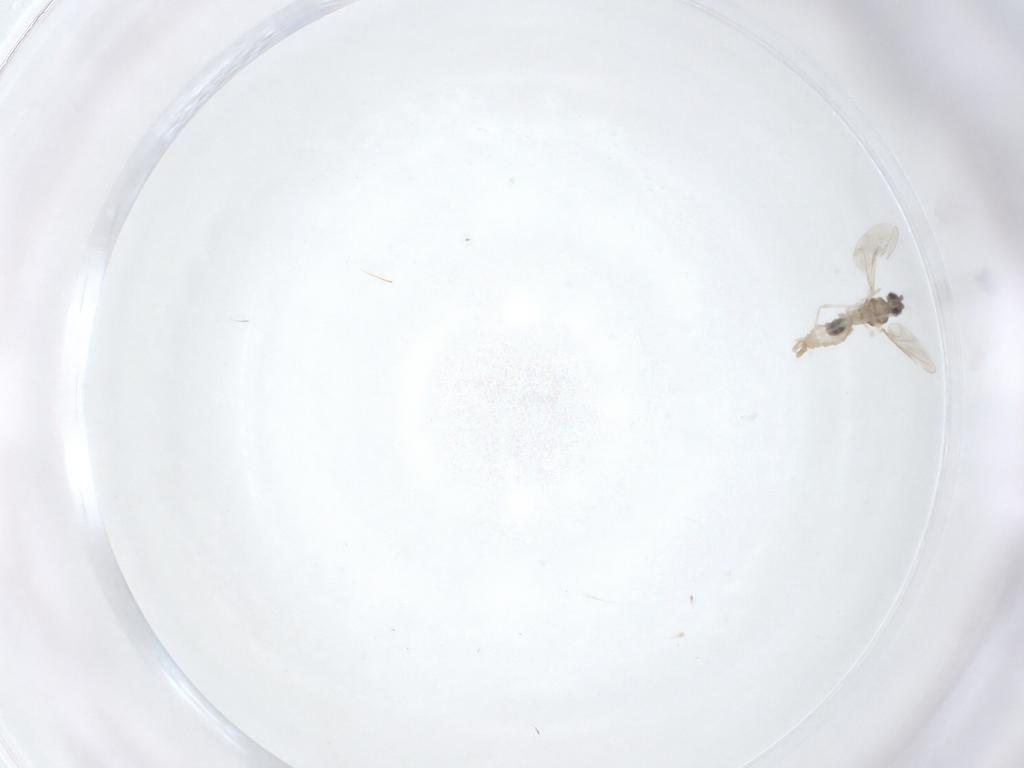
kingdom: Animalia
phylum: Arthropoda
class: Insecta
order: Diptera
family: Cecidomyiidae
